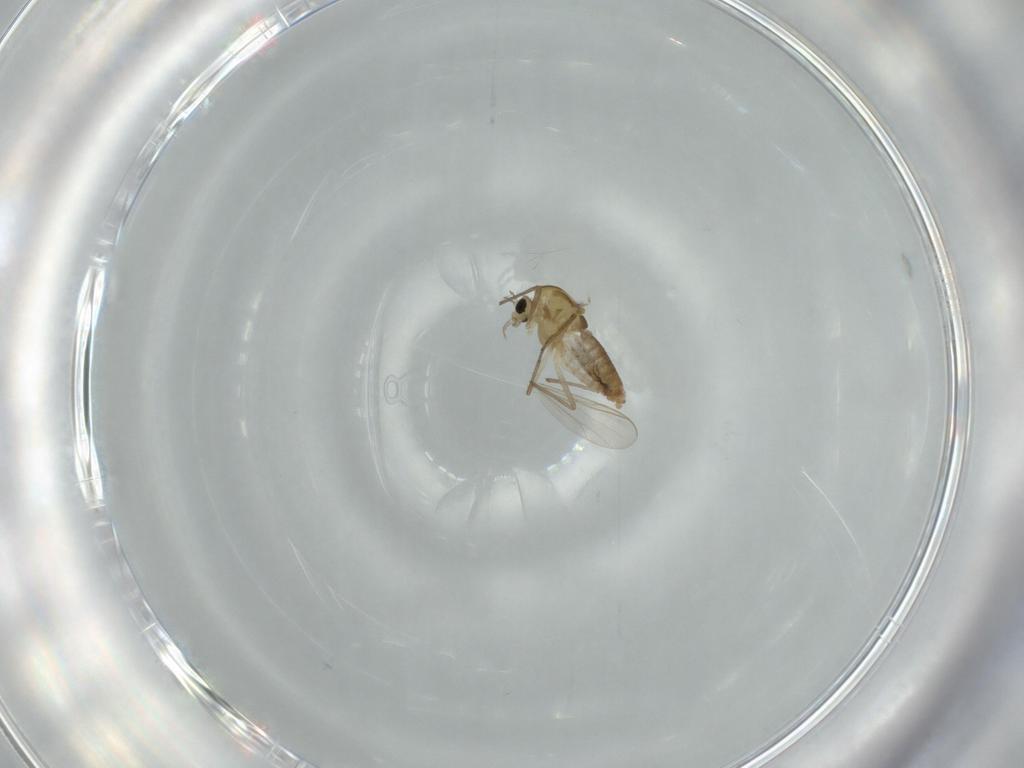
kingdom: Animalia
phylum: Arthropoda
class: Insecta
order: Diptera
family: Chironomidae
